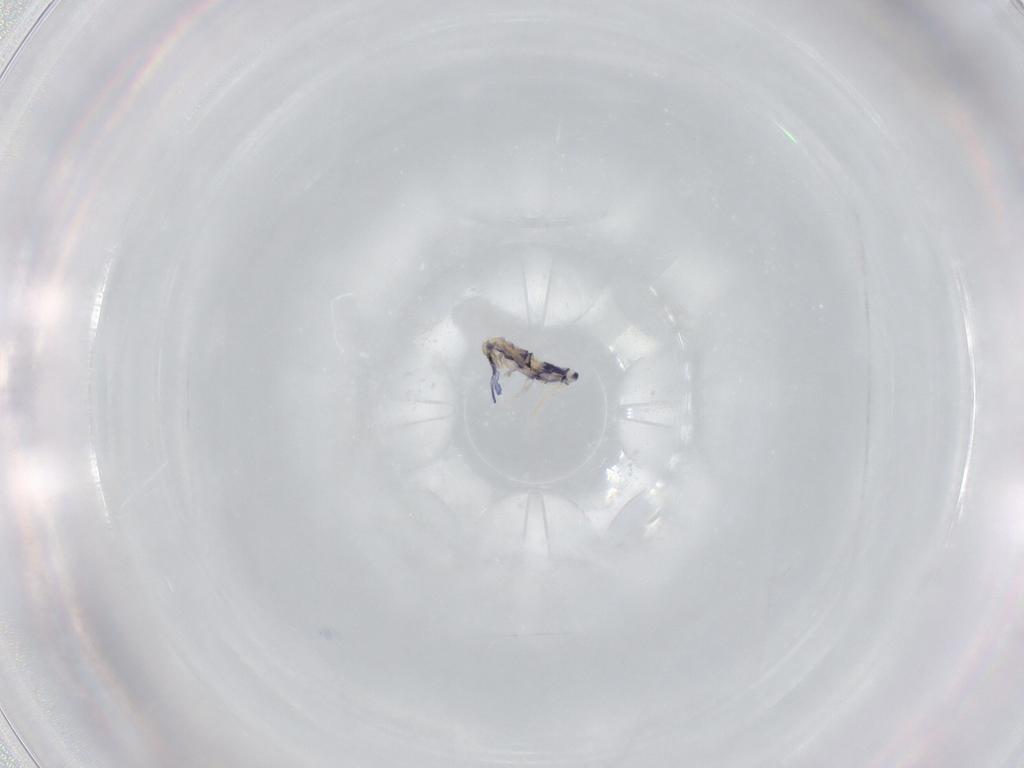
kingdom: Animalia
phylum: Arthropoda
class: Collembola
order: Entomobryomorpha
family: Entomobryidae
